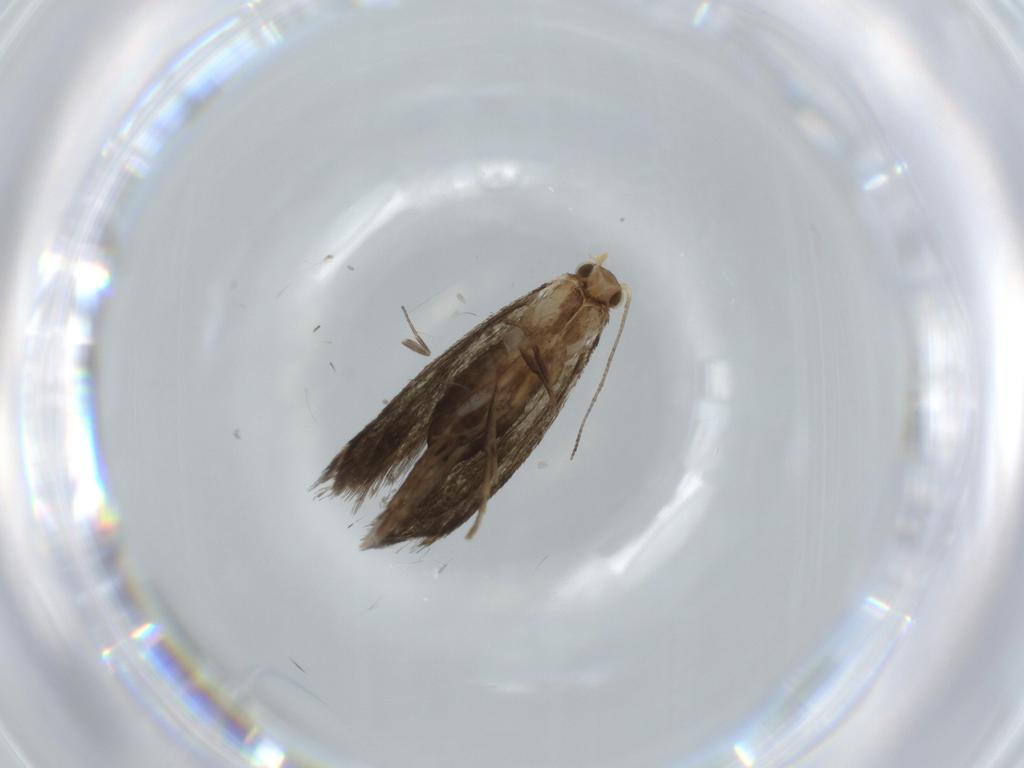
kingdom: Animalia
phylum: Arthropoda
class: Insecta
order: Lepidoptera
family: Tineidae
